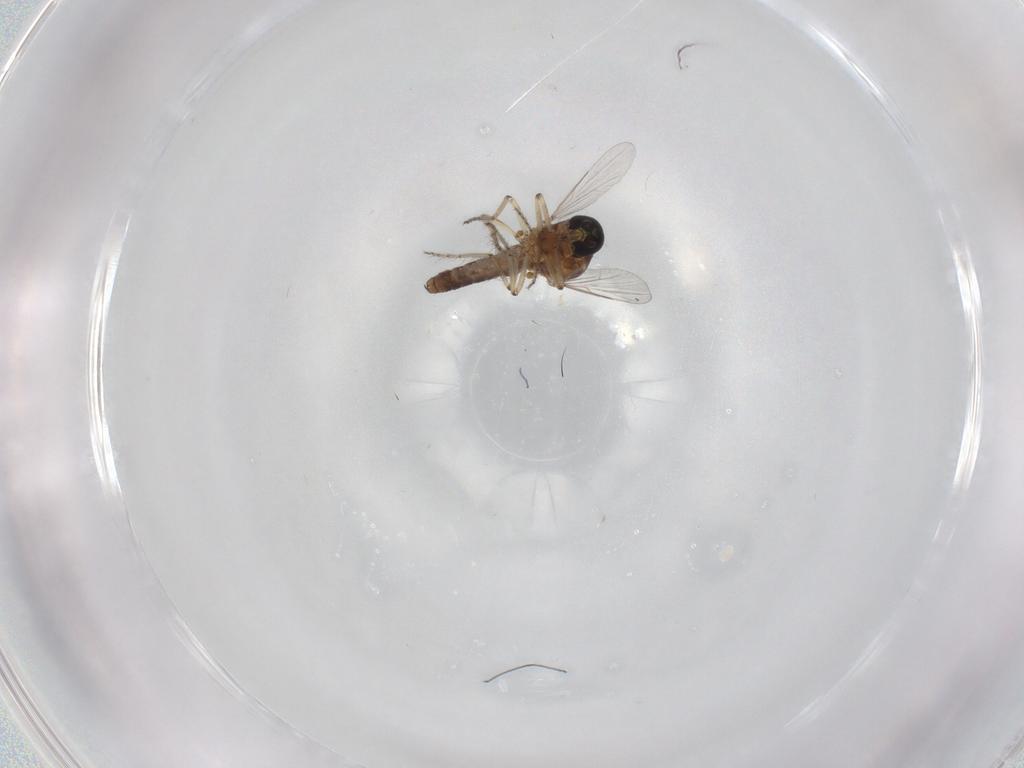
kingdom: Animalia
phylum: Arthropoda
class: Insecta
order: Diptera
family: Ceratopogonidae
